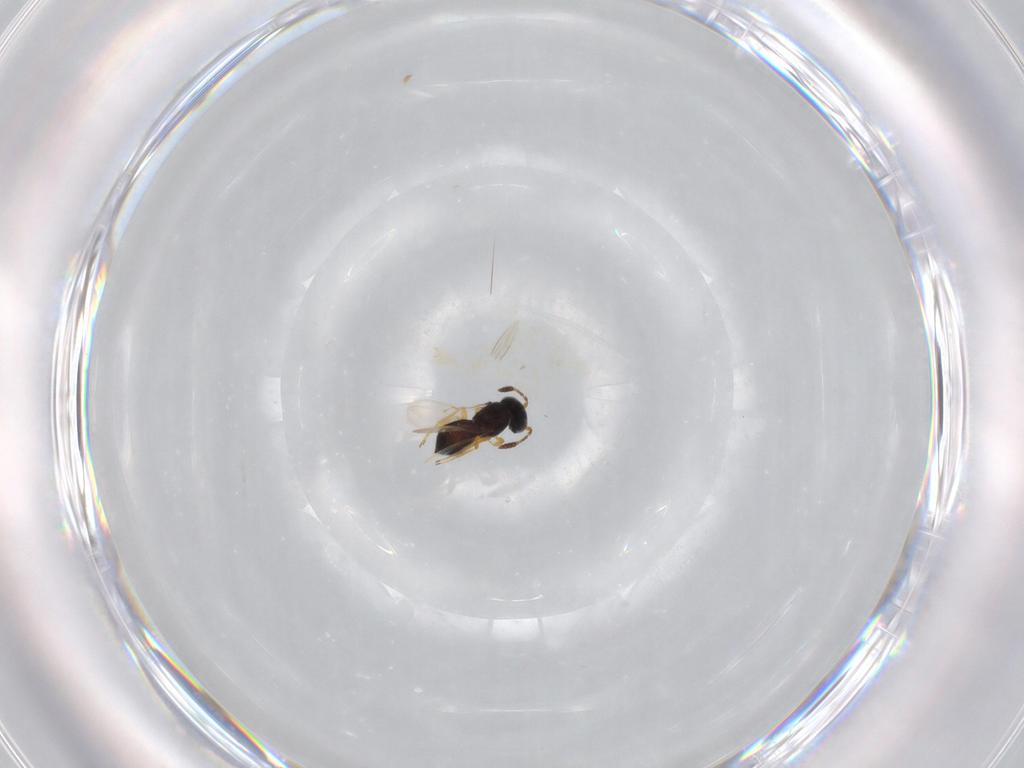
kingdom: Animalia
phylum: Arthropoda
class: Insecta
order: Hymenoptera
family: Scelionidae
